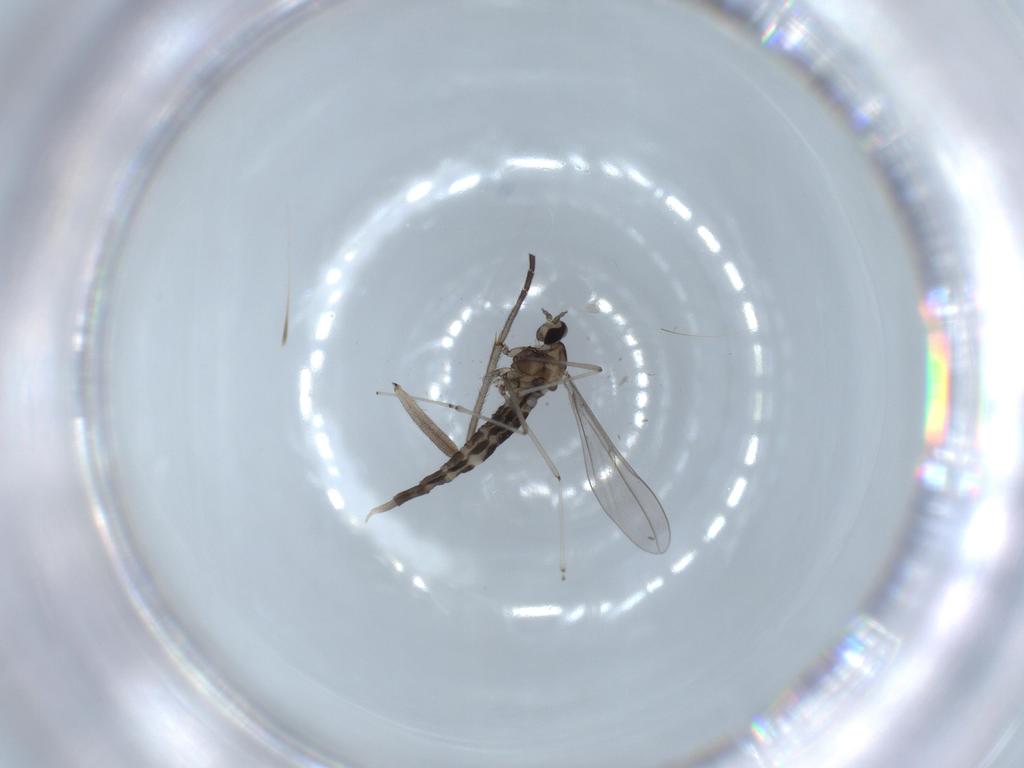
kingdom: Animalia
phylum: Arthropoda
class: Insecta
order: Diptera
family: Cecidomyiidae
